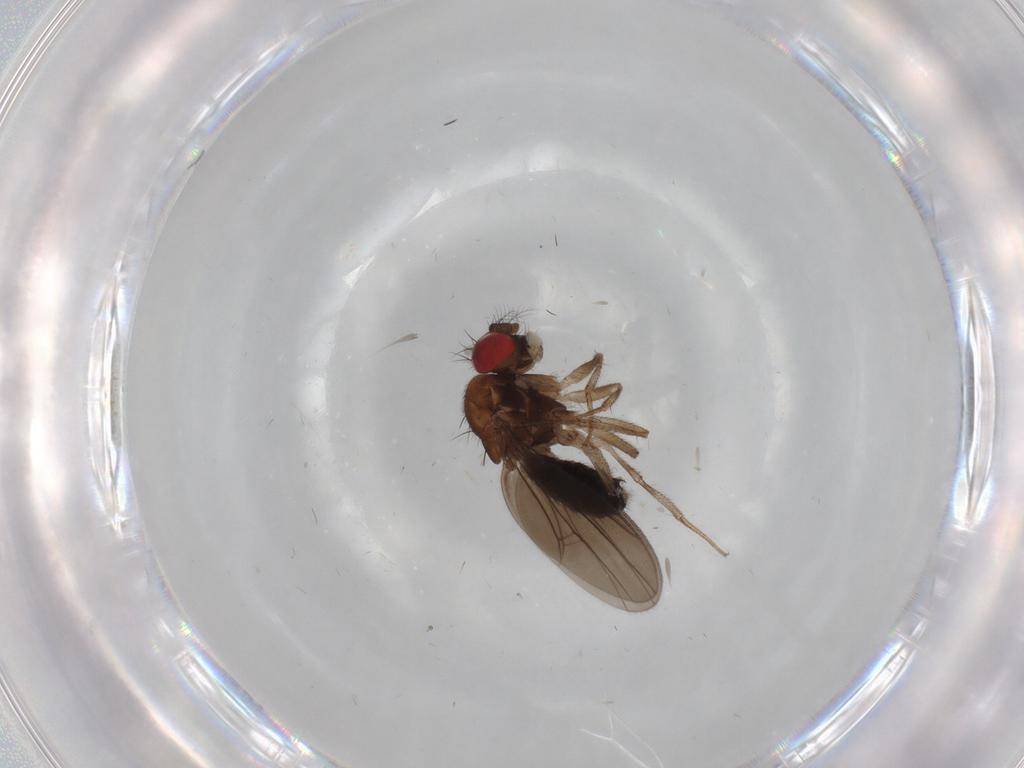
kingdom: Animalia
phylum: Arthropoda
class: Insecta
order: Diptera
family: Drosophilidae
